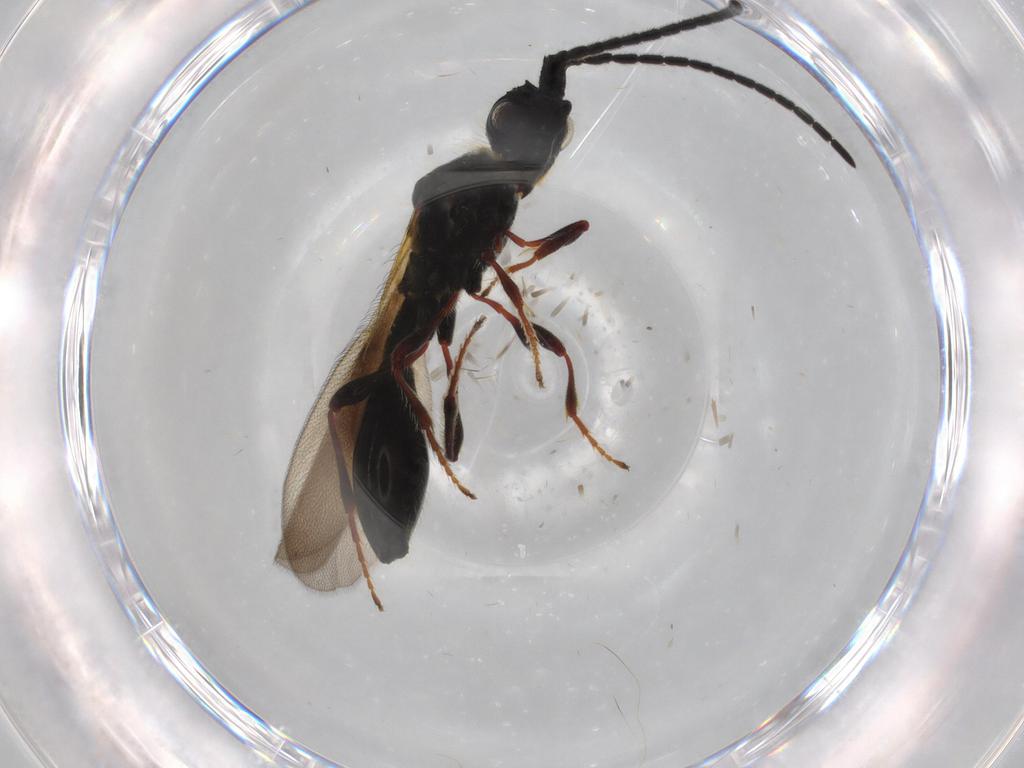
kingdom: Animalia
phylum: Arthropoda
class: Insecta
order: Hymenoptera
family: Diapriidae
